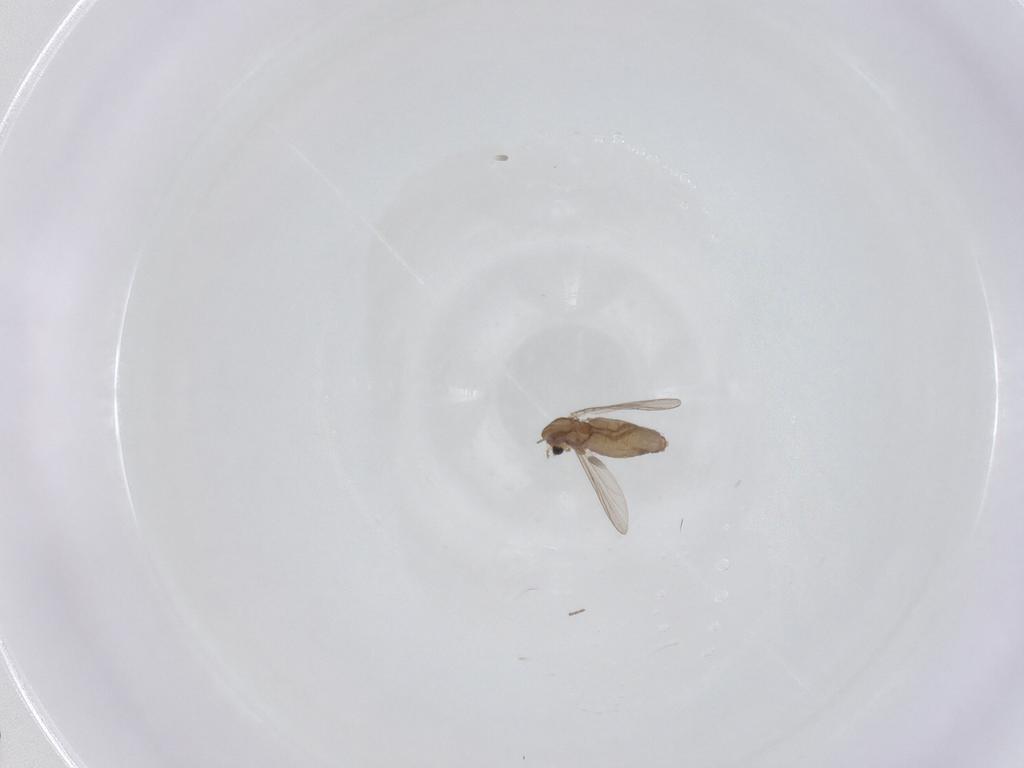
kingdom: Animalia
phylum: Arthropoda
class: Insecta
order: Diptera
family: Chironomidae
